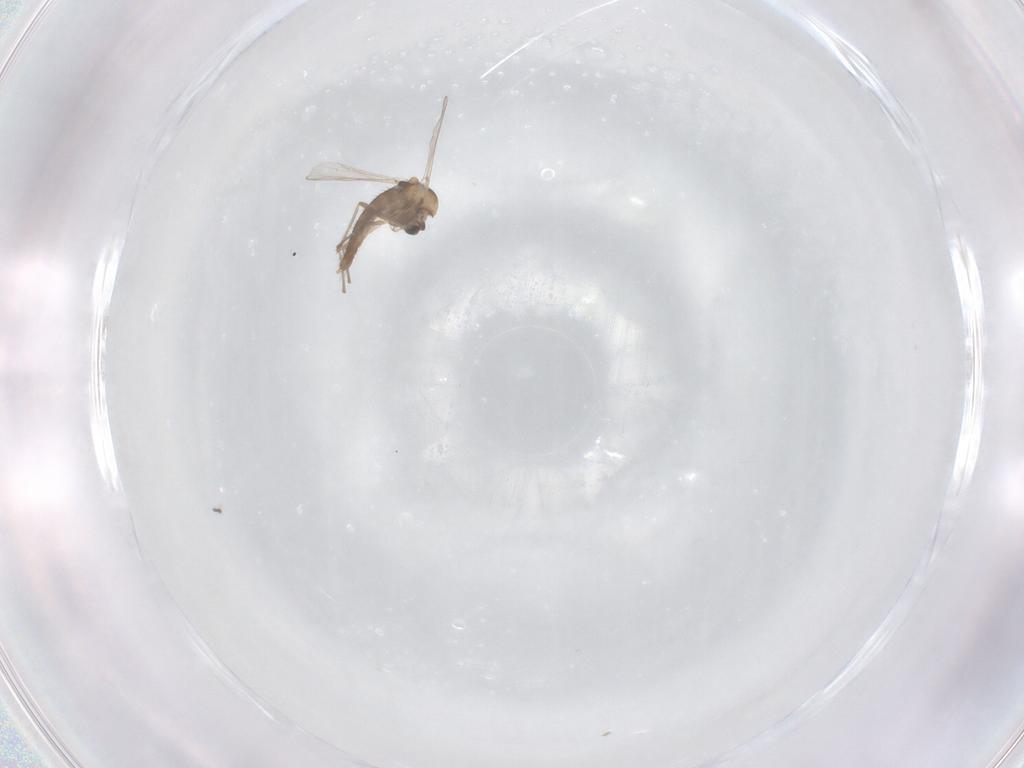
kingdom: Animalia
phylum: Arthropoda
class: Insecta
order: Diptera
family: Chironomidae
